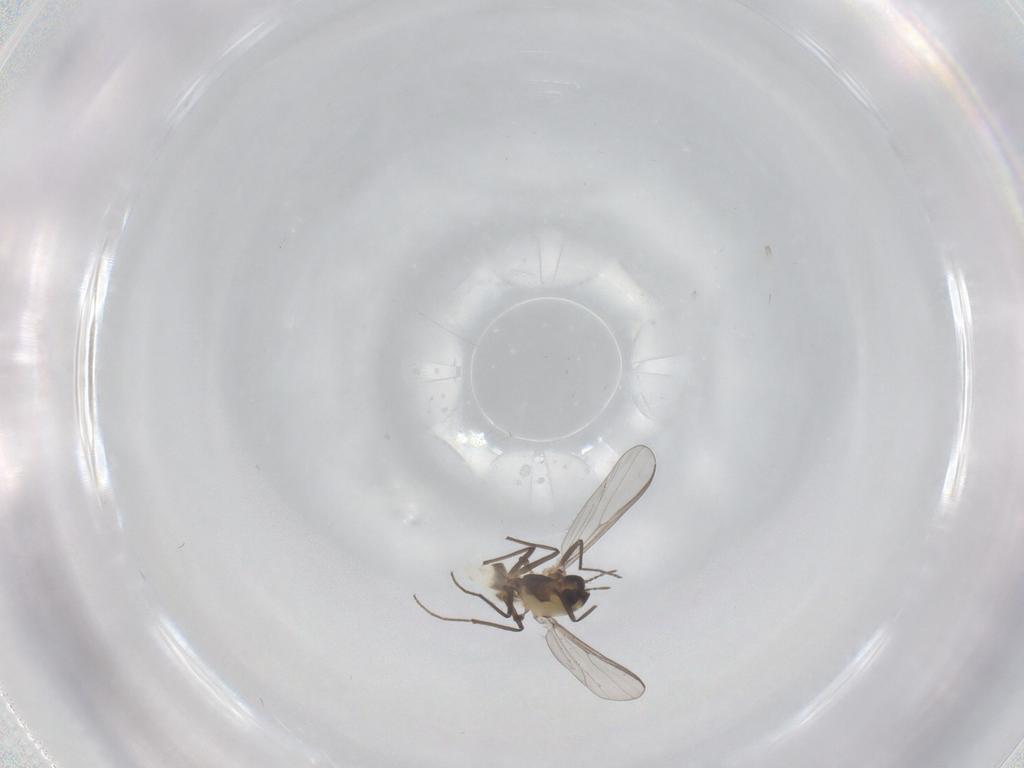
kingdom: Animalia
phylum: Arthropoda
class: Insecta
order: Diptera
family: Chironomidae
